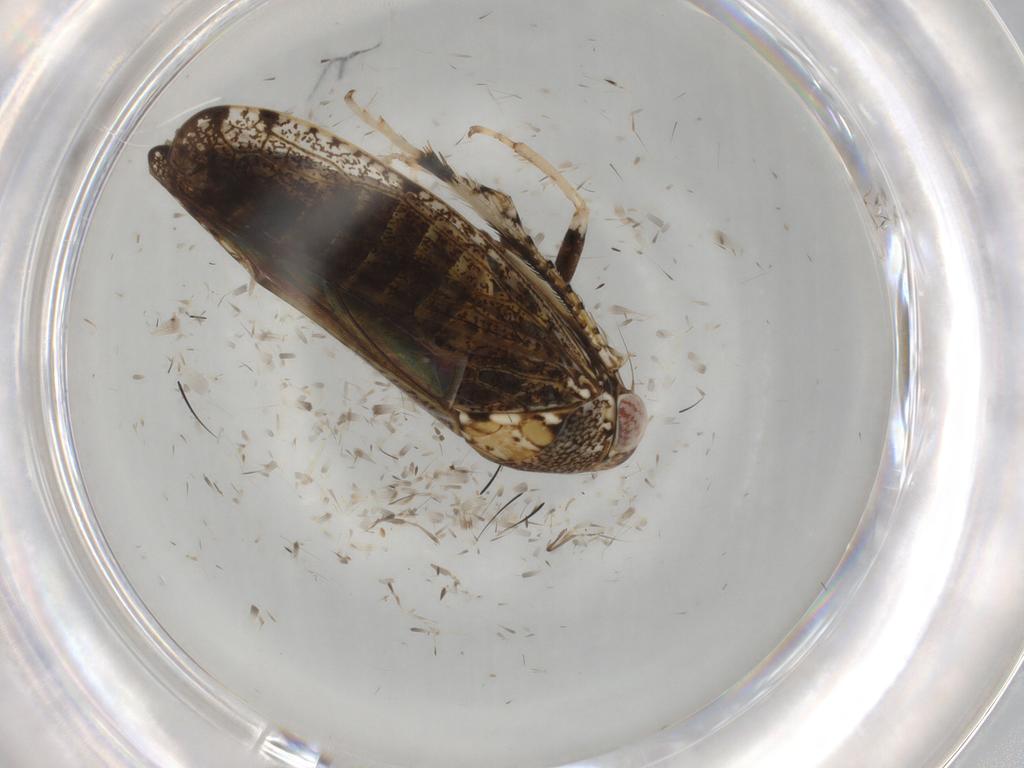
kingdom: Animalia
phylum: Arthropoda
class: Insecta
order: Hemiptera
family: Cicadellidae
